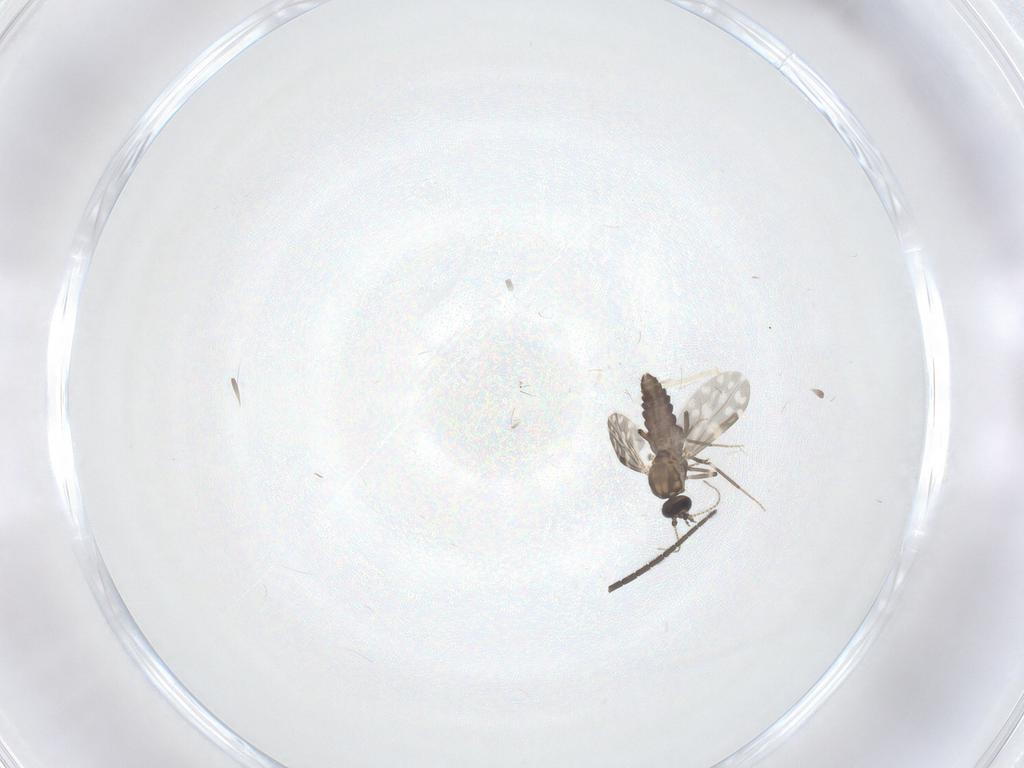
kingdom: Animalia
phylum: Arthropoda
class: Insecta
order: Diptera
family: Sciaridae
